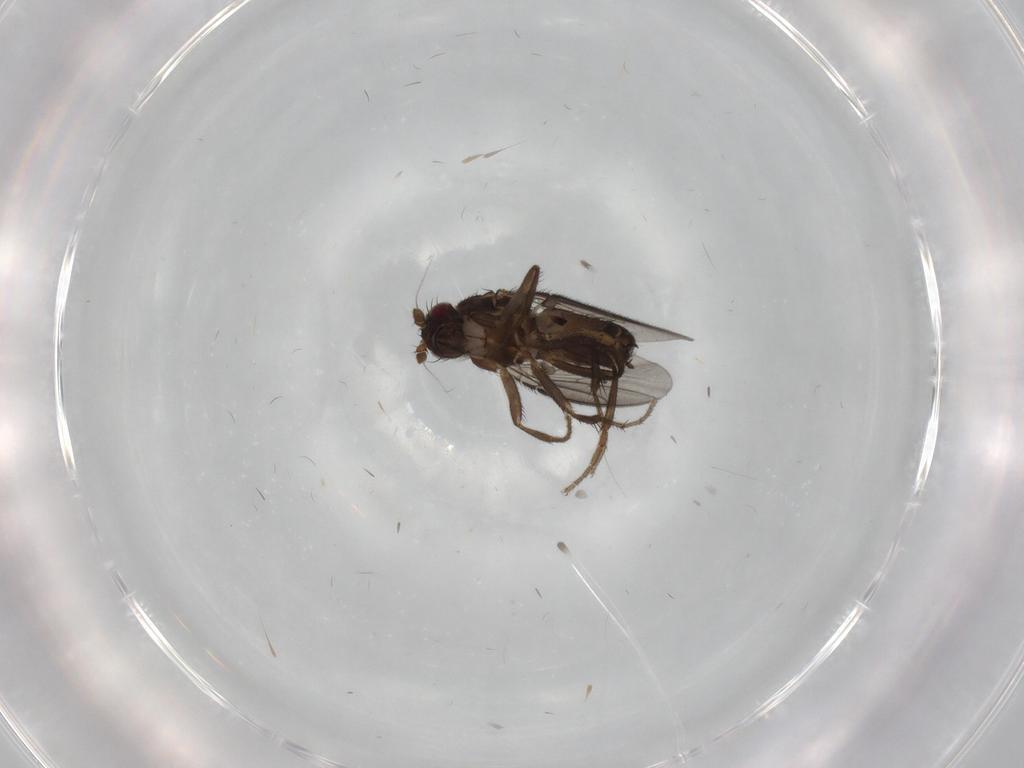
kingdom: Animalia
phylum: Arthropoda
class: Insecta
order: Diptera
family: Sphaeroceridae
